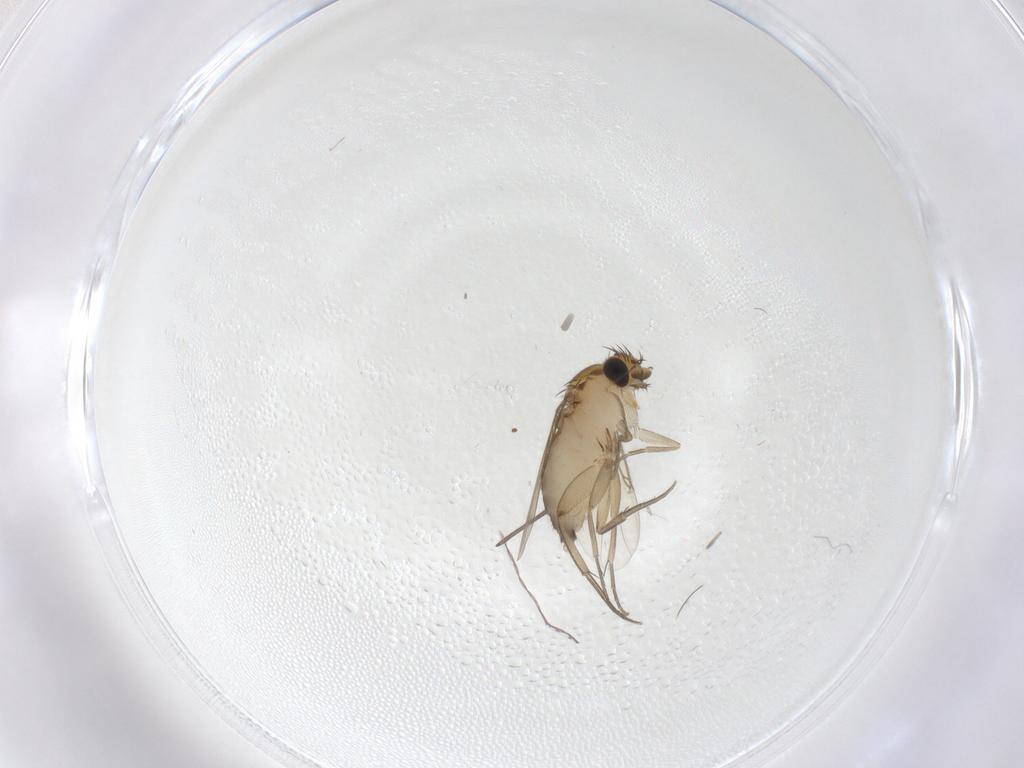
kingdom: Animalia
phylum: Arthropoda
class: Insecta
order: Diptera
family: Phoridae
